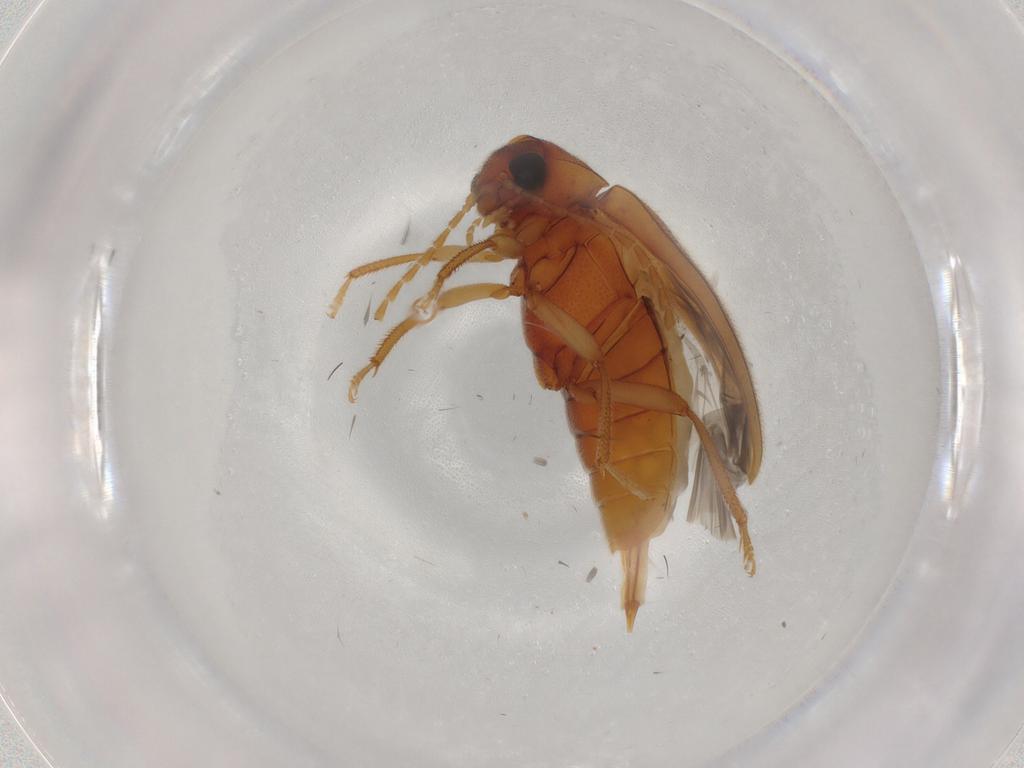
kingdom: Animalia
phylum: Arthropoda
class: Insecta
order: Coleoptera
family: Ptilodactylidae
